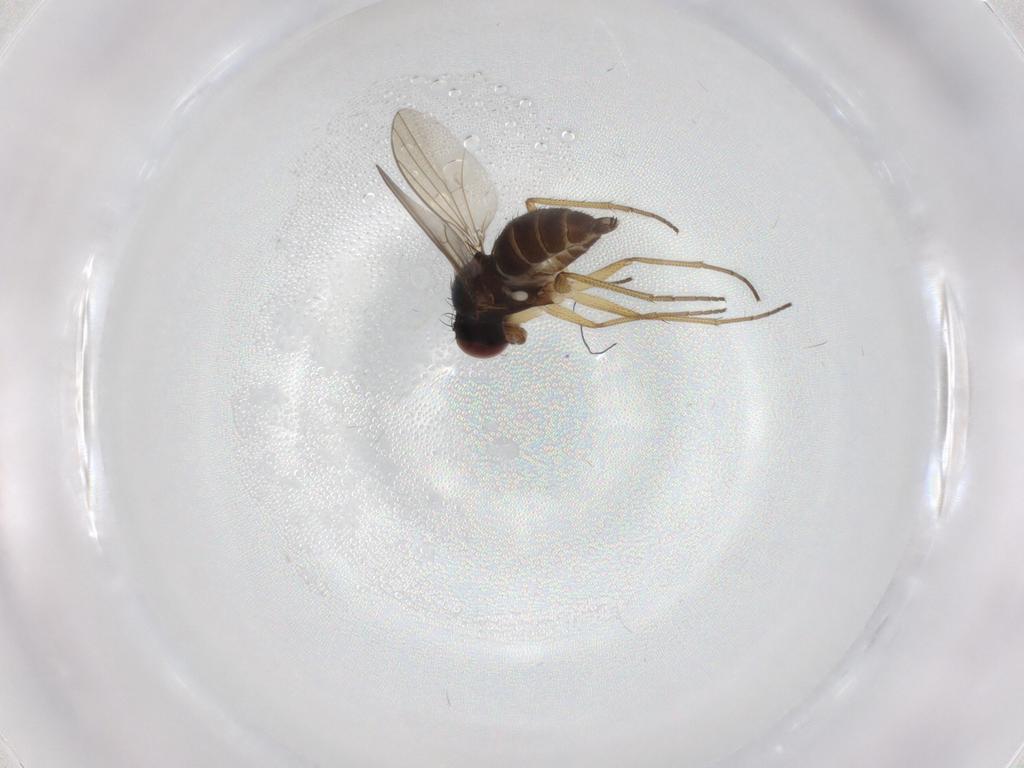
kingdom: Animalia
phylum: Arthropoda
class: Insecta
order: Diptera
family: Dolichopodidae
